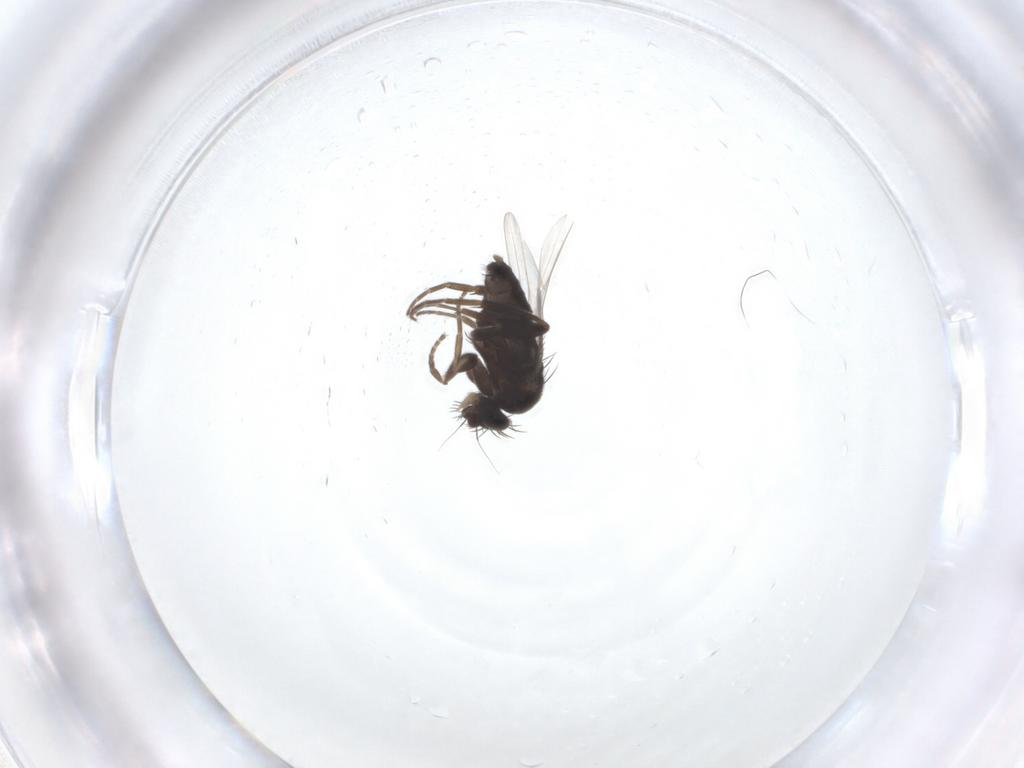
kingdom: Animalia
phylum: Arthropoda
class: Insecta
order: Diptera
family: Phoridae
